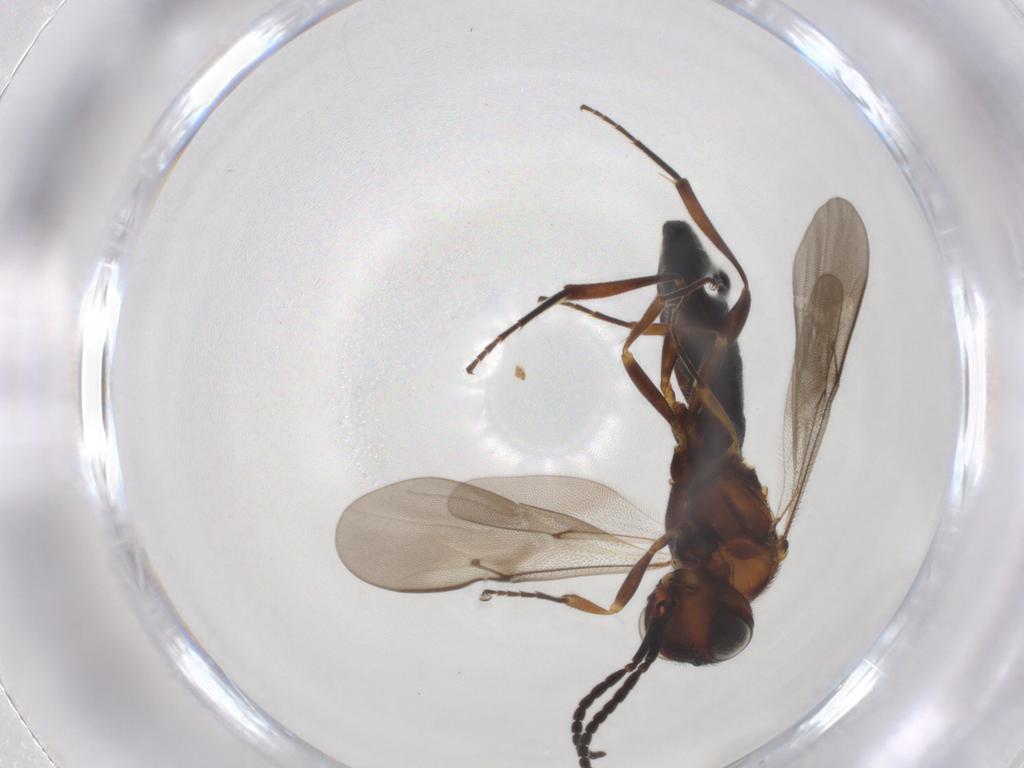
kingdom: Animalia
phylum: Arthropoda
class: Insecta
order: Hymenoptera
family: Scelionidae
